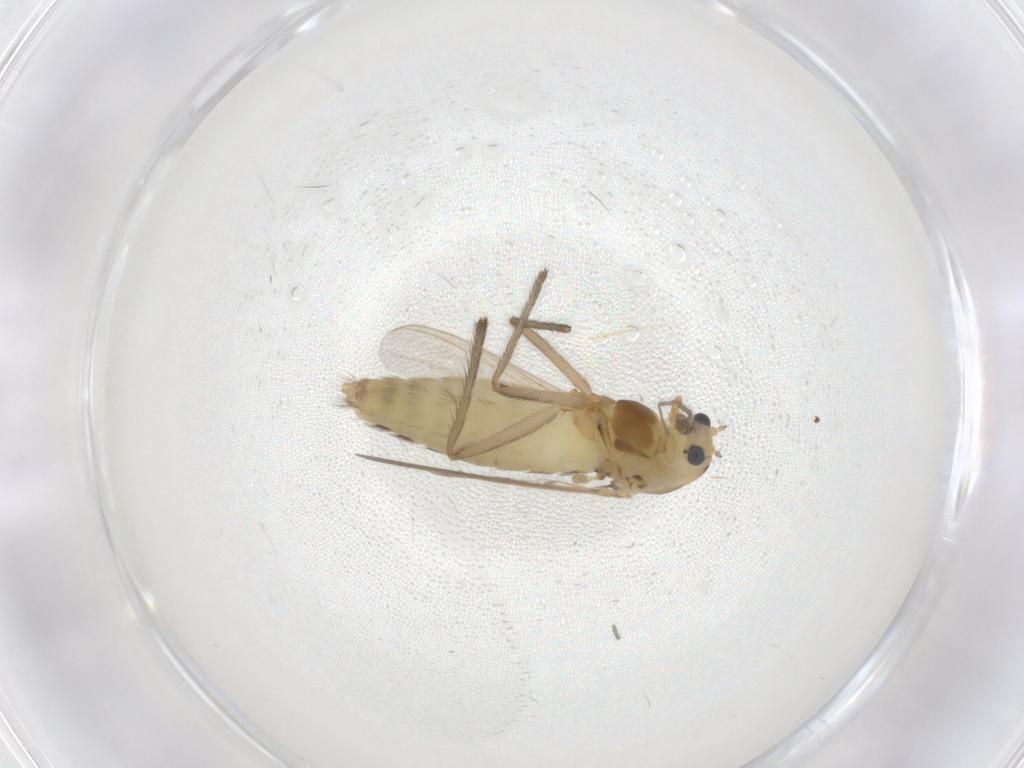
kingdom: Animalia
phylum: Arthropoda
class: Insecta
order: Diptera
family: Chironomidae
